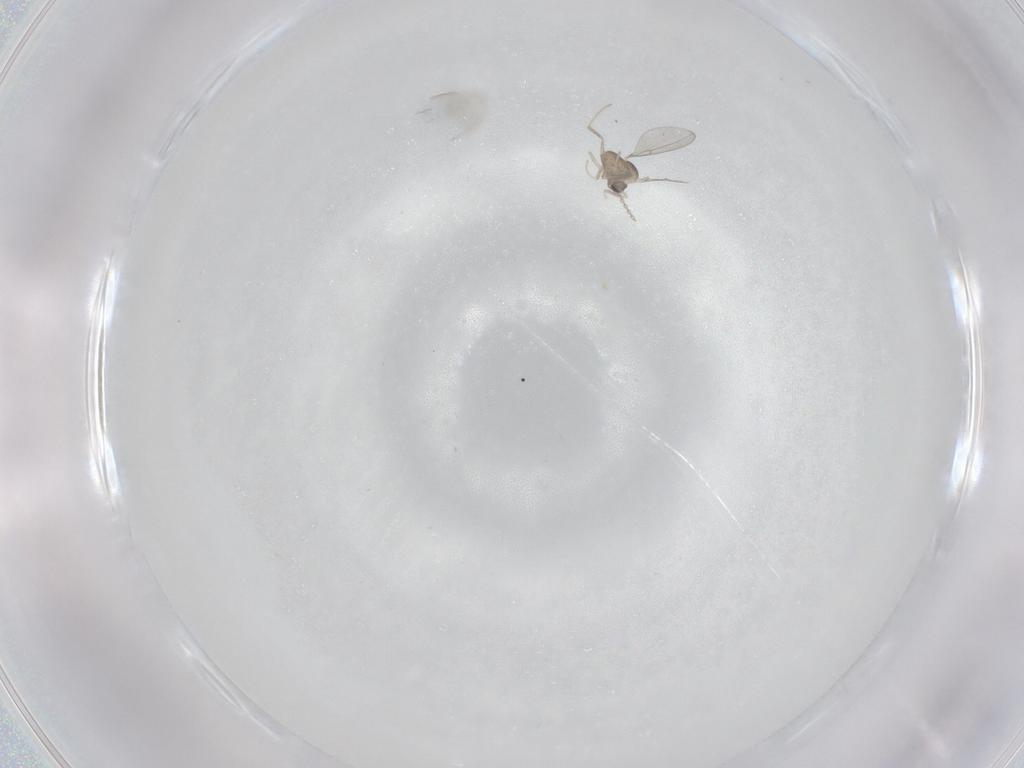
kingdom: Animalia
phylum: Arthropoda
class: Insecta
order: Diptera
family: Cecidomyiidae
